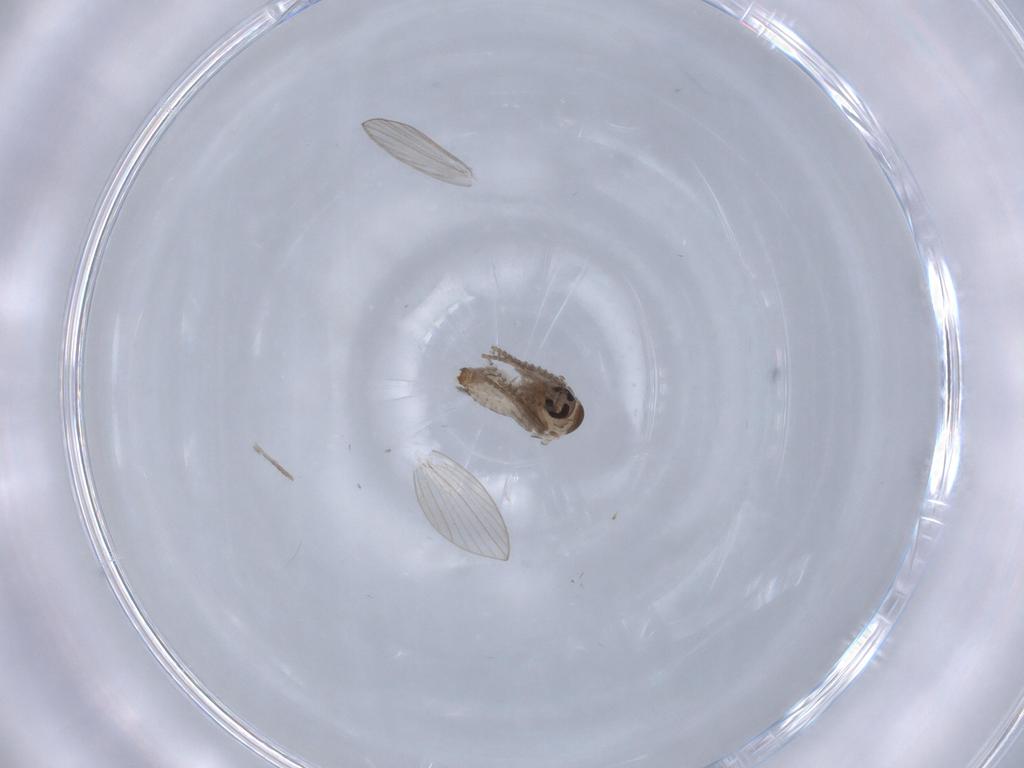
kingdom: Animalia
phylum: Arthropoda
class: Insecta
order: Diptera
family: Psychodidae
